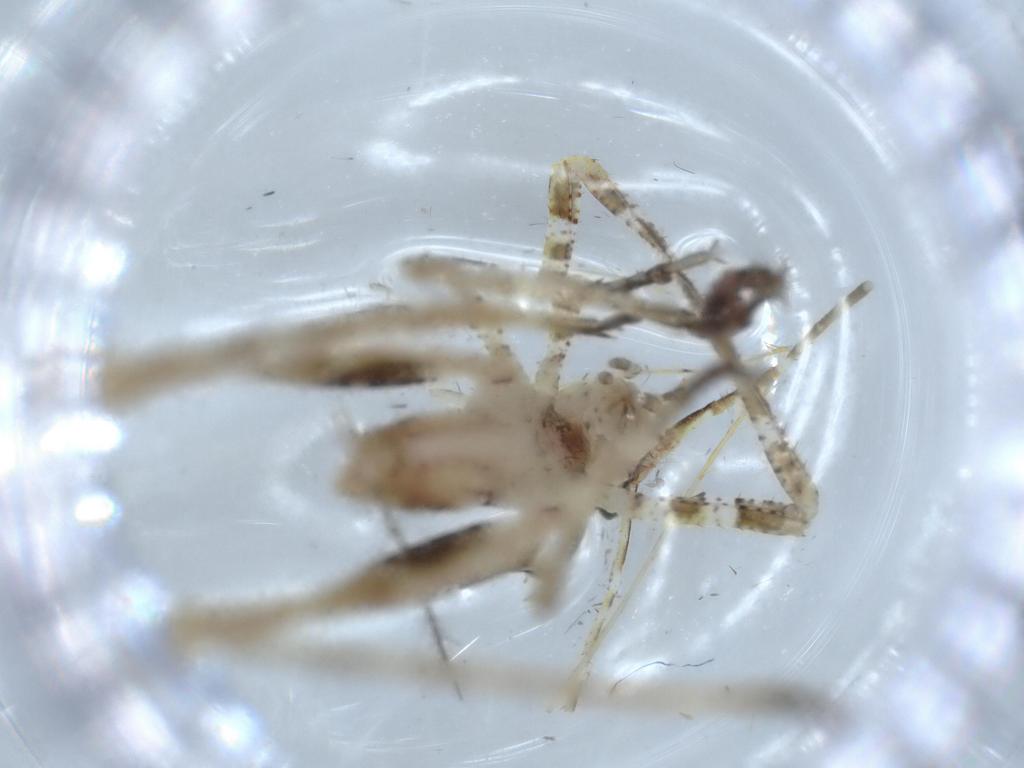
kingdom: Animalia
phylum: Arthropoda
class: Insecta
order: Orthoptera
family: Tettigoniidae
